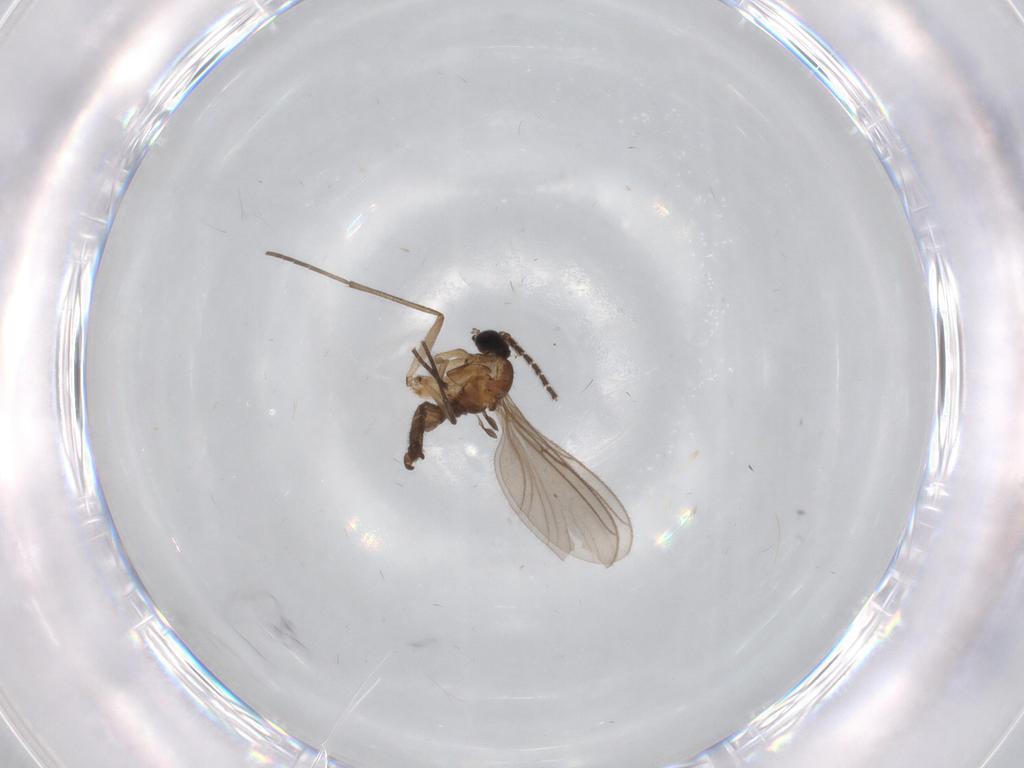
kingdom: Animalia
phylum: Arthropoda
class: Insecta
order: Diptera
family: Sciaridae
